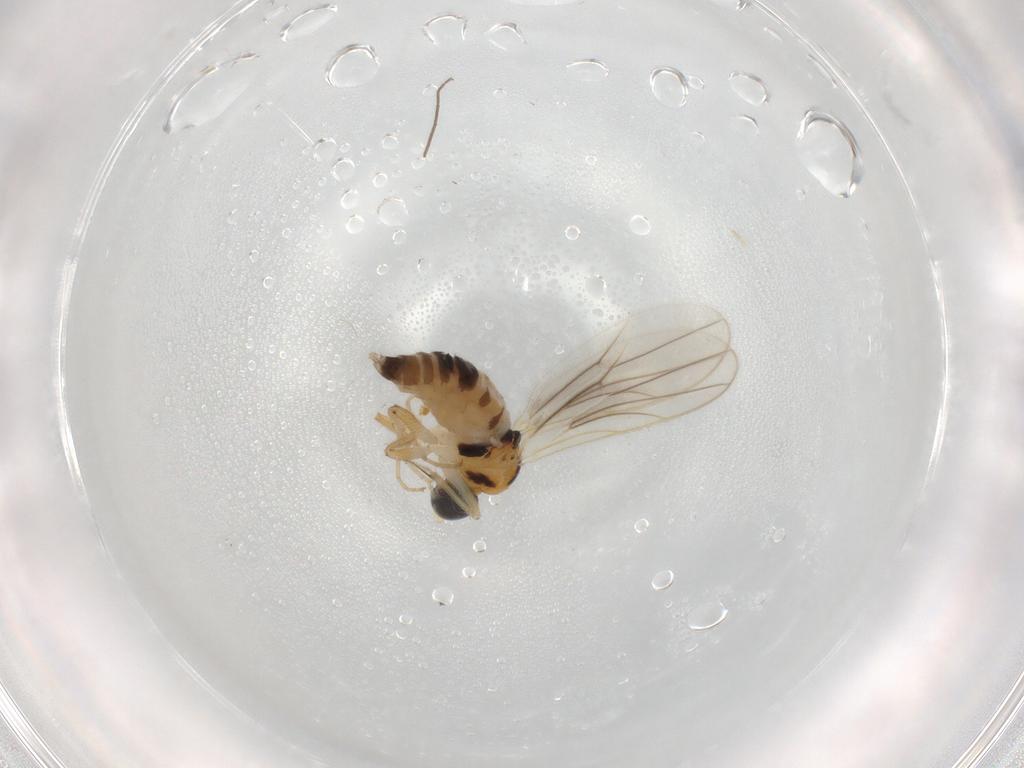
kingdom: Animalia
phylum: Arthropoda
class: Insecta
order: Diptera
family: Hybotidae
